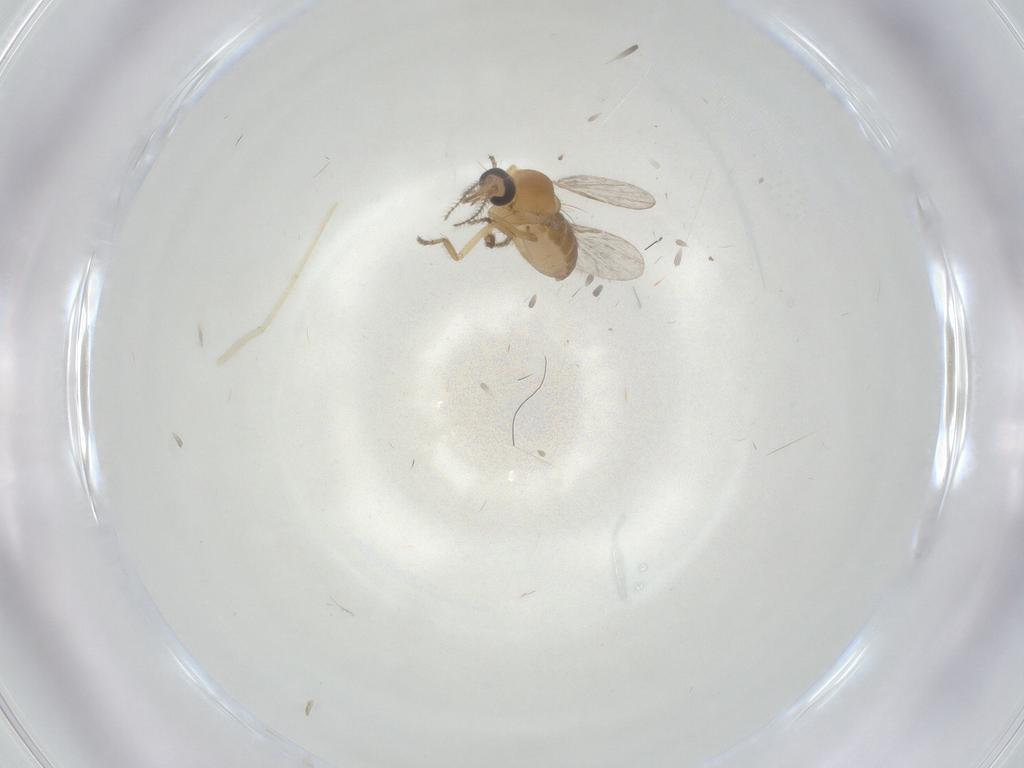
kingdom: Animalia
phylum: Arthropoda
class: Insecta
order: Diptera
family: Ceratopogonidae
